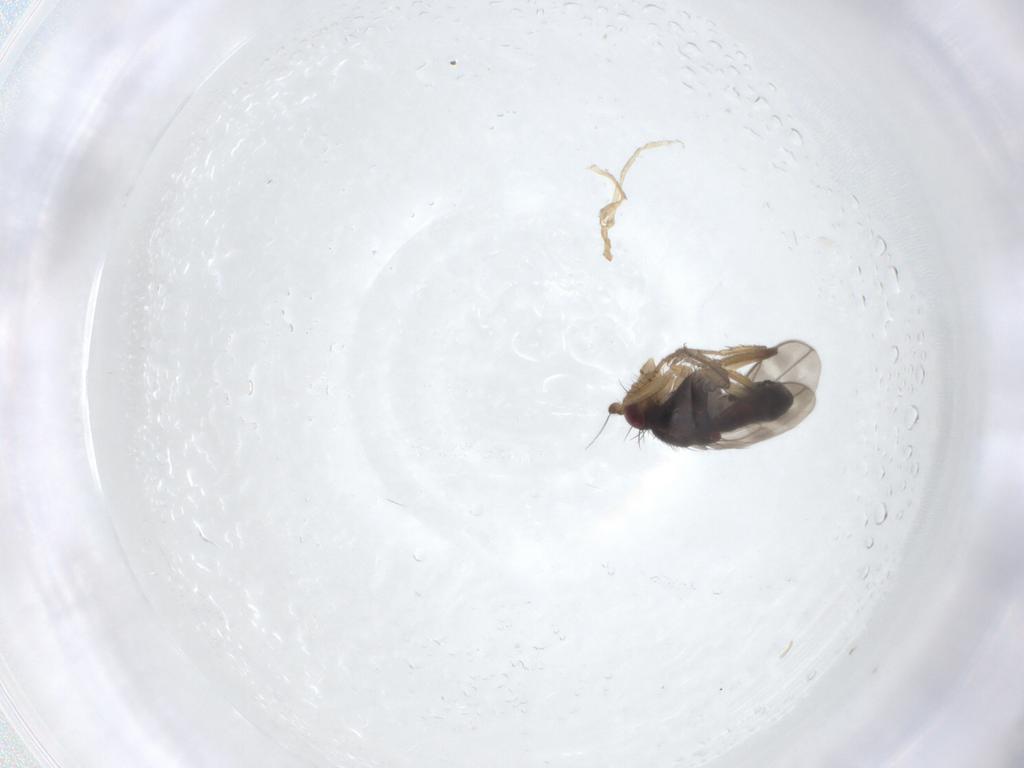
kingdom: Animalia
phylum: Arthropoda
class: Insecta
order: Diptera
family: Sphaeroceridae
